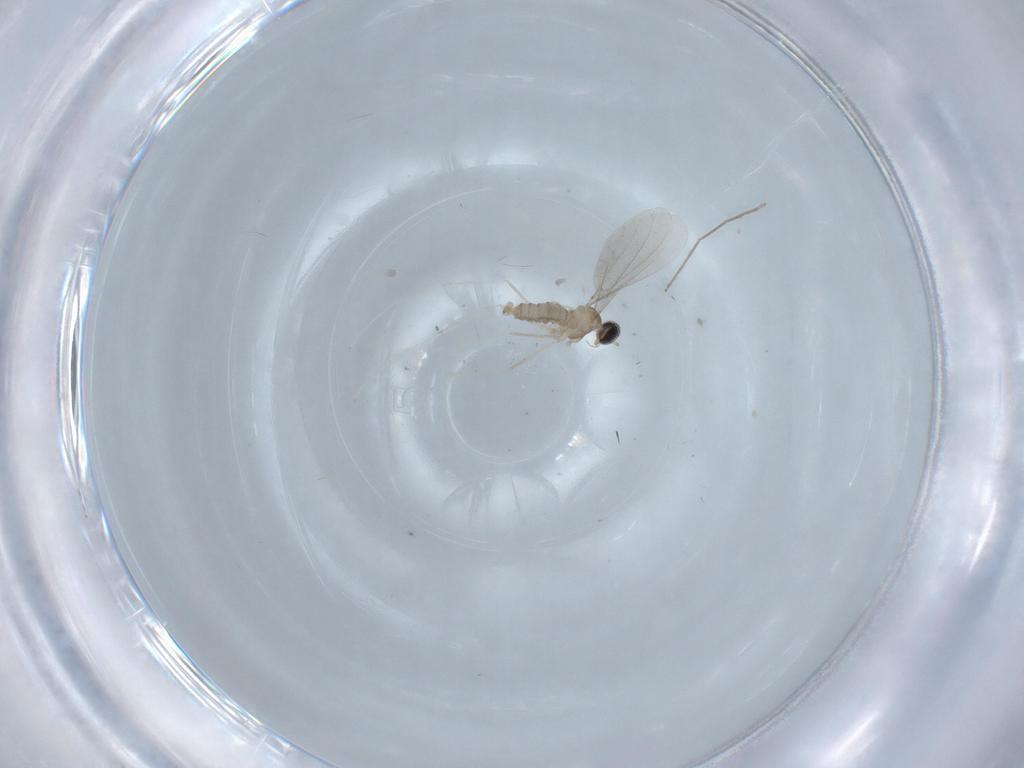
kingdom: Animalia
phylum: Arthropoda
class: Insecta
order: Diptera
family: Cecidomyiidae
